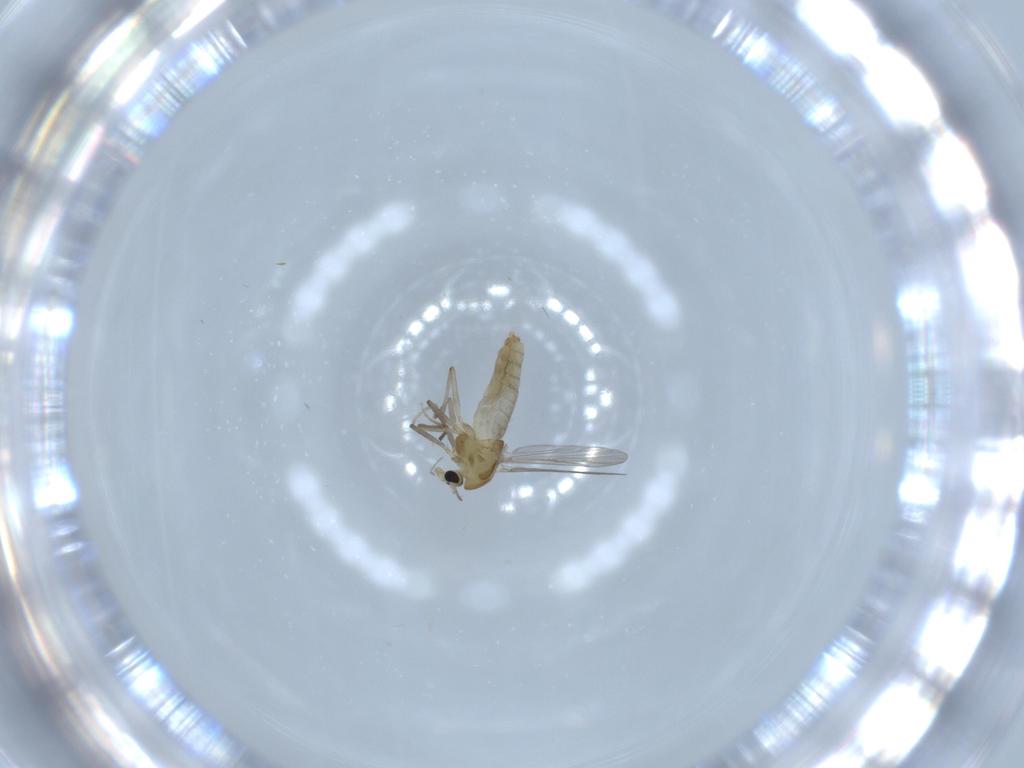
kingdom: Animalia
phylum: Arthropoda
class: Insecta
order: Diptera
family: Chironomidae
